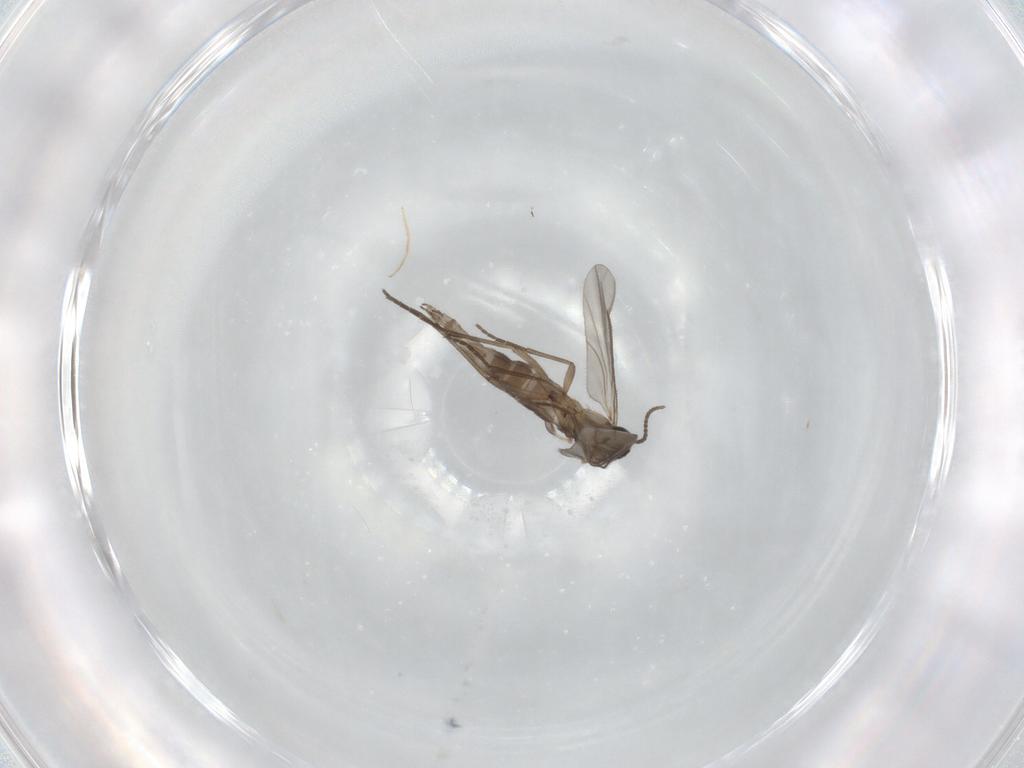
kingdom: Animalia
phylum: Arthropoda
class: Insecta
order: Diptera
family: Sciaridae
